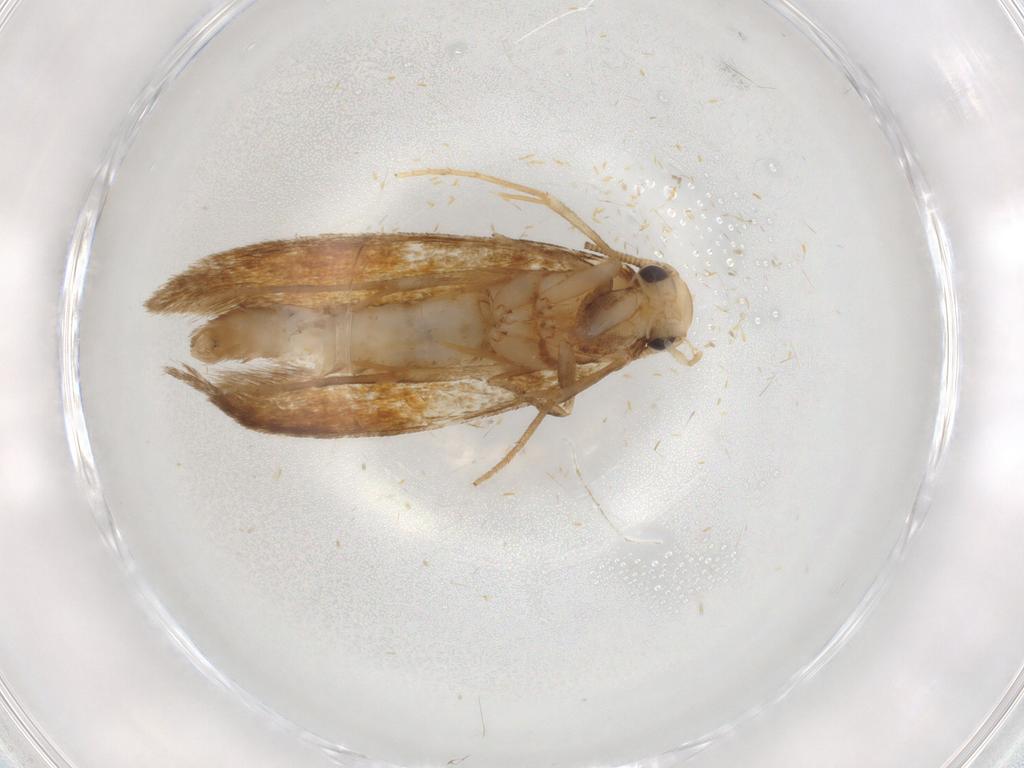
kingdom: Animalia
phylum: Arthropoda
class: Insecta
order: Lepidoptera
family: Tineidae
